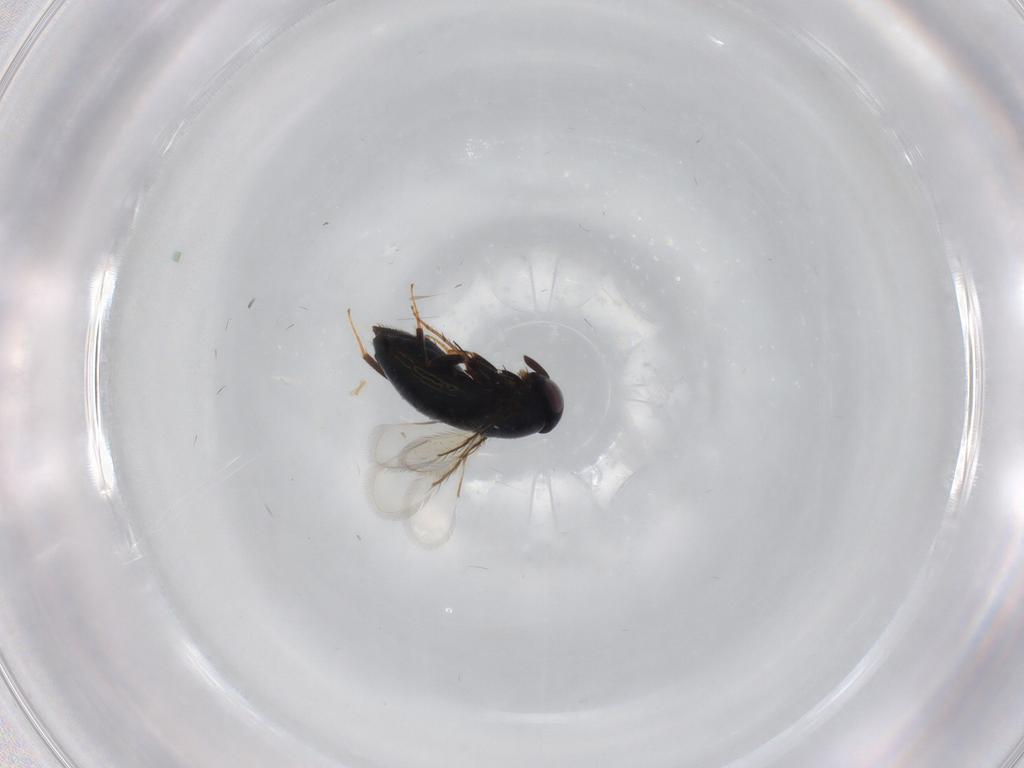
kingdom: Animalia
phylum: Arthropoda
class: Insecta
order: Hymenoptera
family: Signiphoridae
